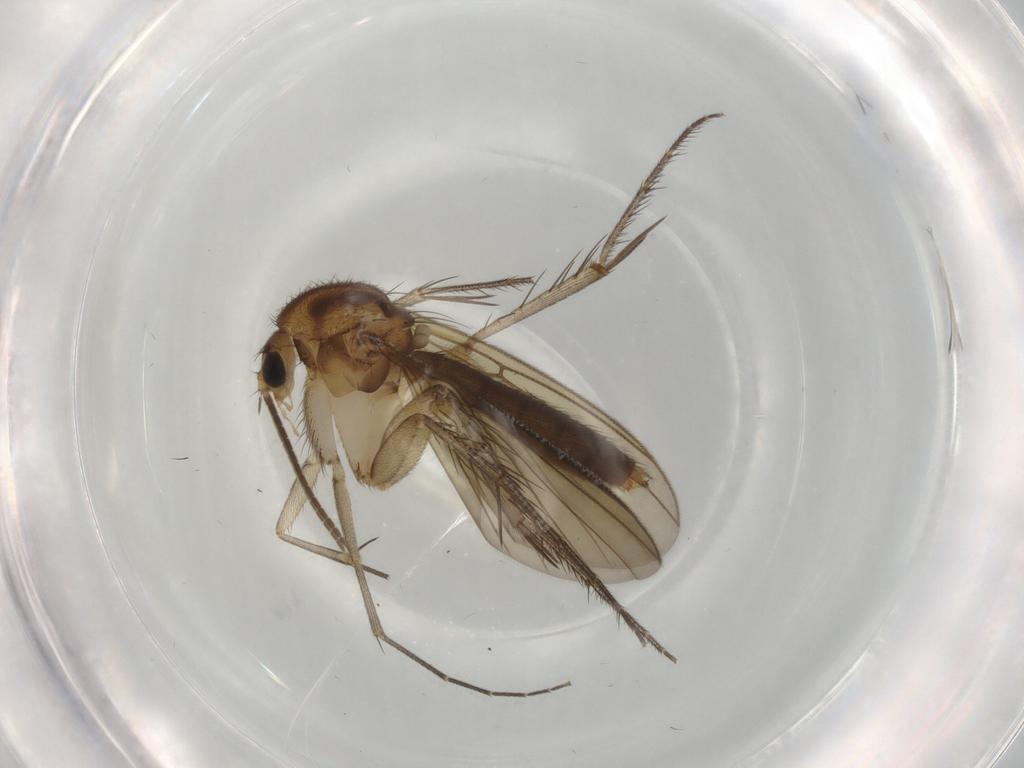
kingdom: Animalia
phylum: Arthropoda
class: Insecta
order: Diptera
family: Mycetophilidae
